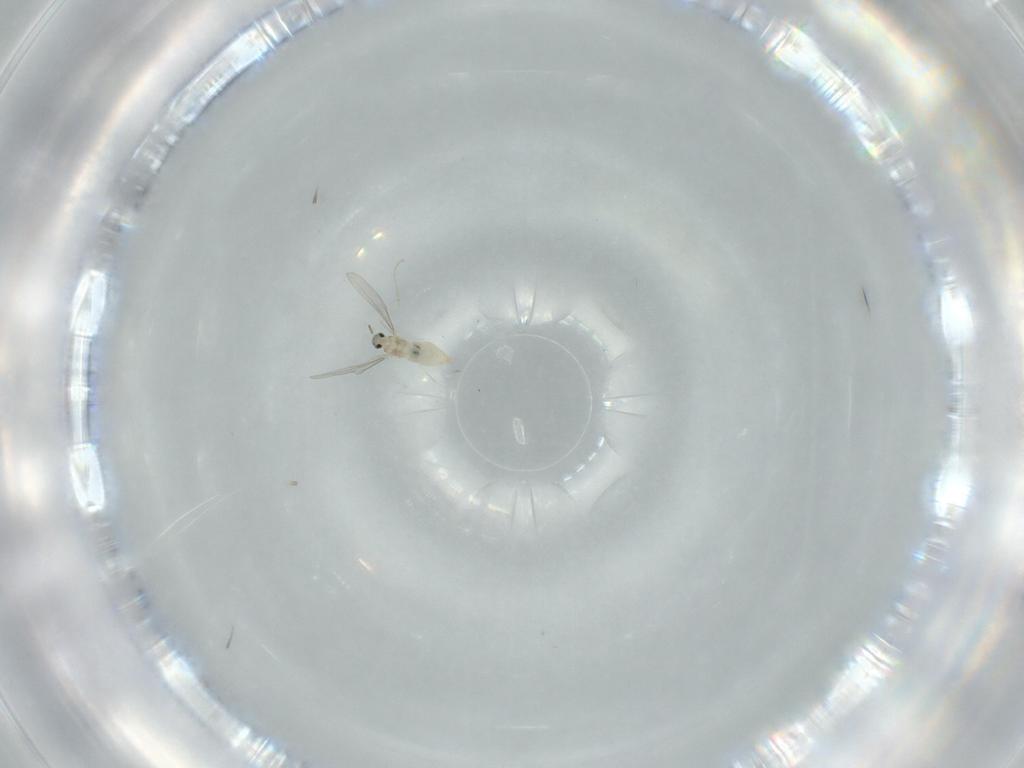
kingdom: Animalia
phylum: Arthropoda
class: Insecta
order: Diptera
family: Cecidomyiidae
